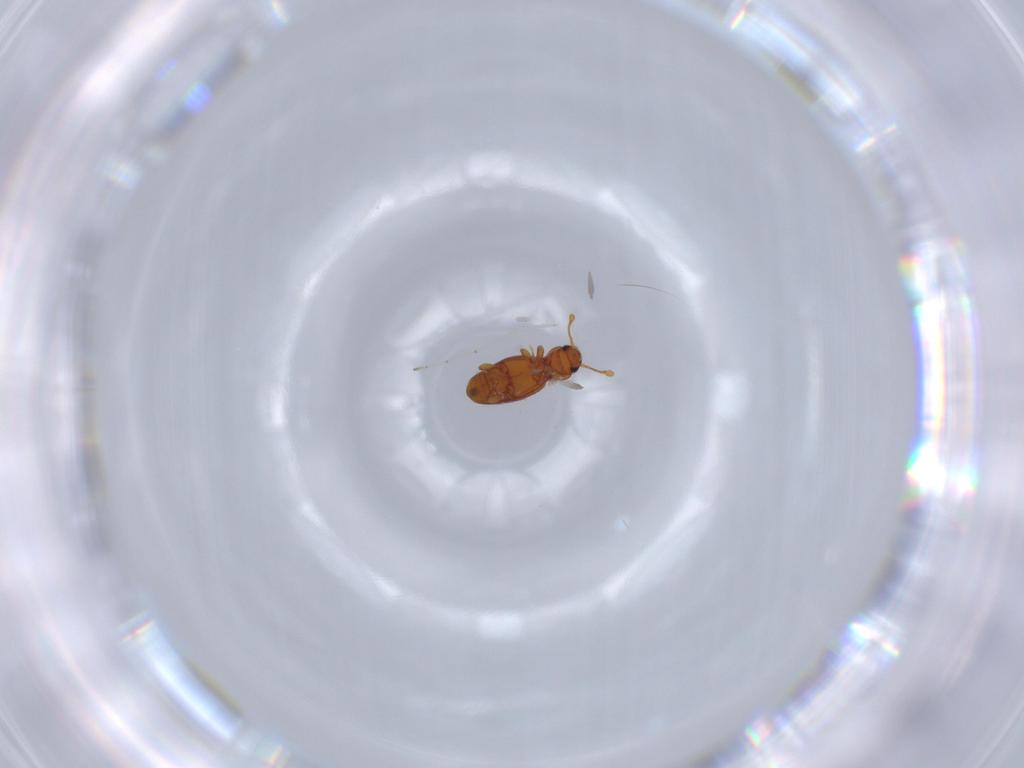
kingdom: Animalia
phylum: Arthropoda
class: Insecta
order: Coleoptera
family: Endomychidae
